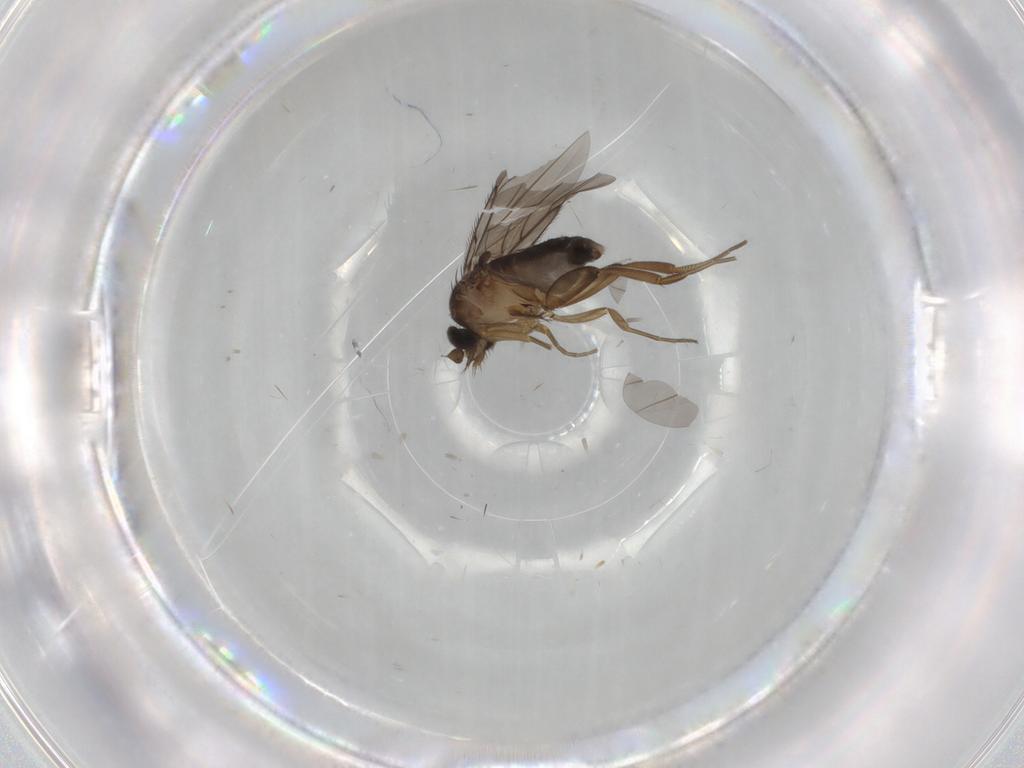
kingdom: Animalia
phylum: Arthropoda
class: Insecta
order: Diptera
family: Phoridae
